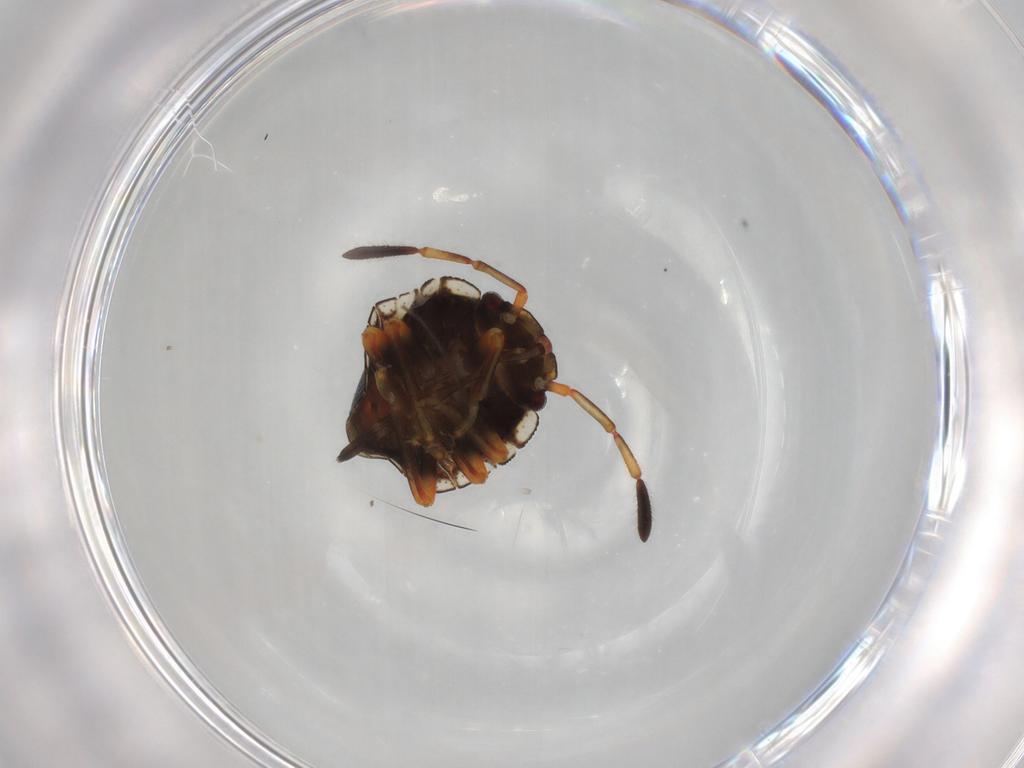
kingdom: Animalia
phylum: Arthropoda
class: Insecta
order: Hemiptera
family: Pentatomidae
